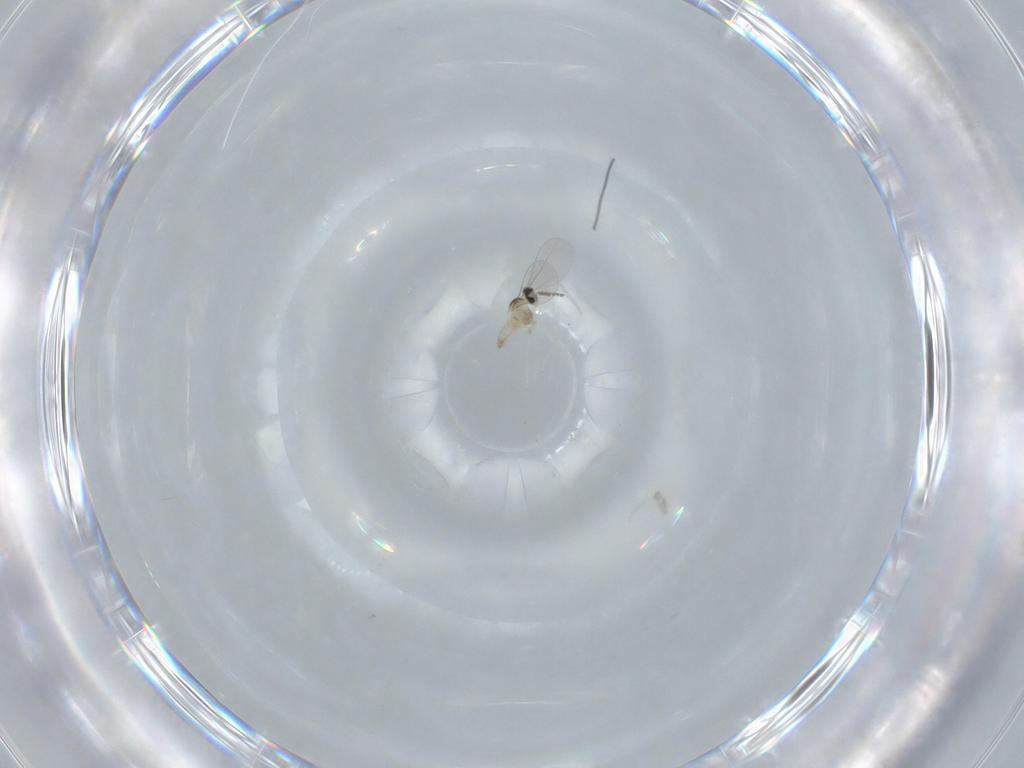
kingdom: Animalia
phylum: Arthropoda
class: Insecta
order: Diptera
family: Cecidomyiidae
